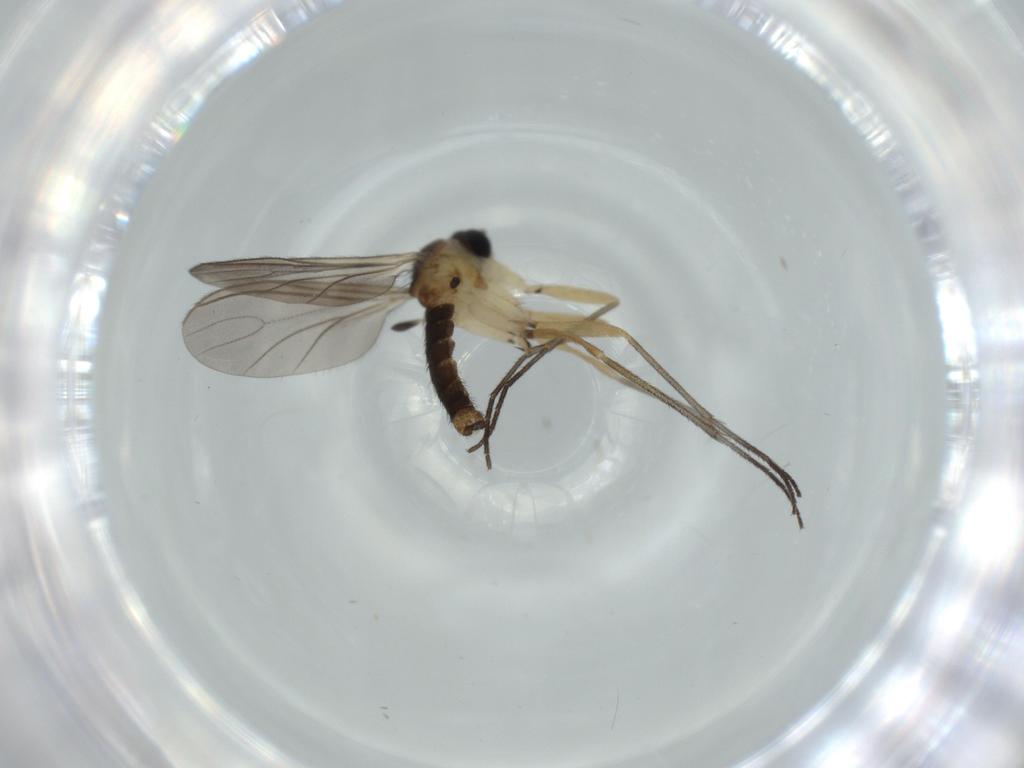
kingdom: Animalia
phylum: Arthropoda
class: Insecta
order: Diptera
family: Sciaridae
